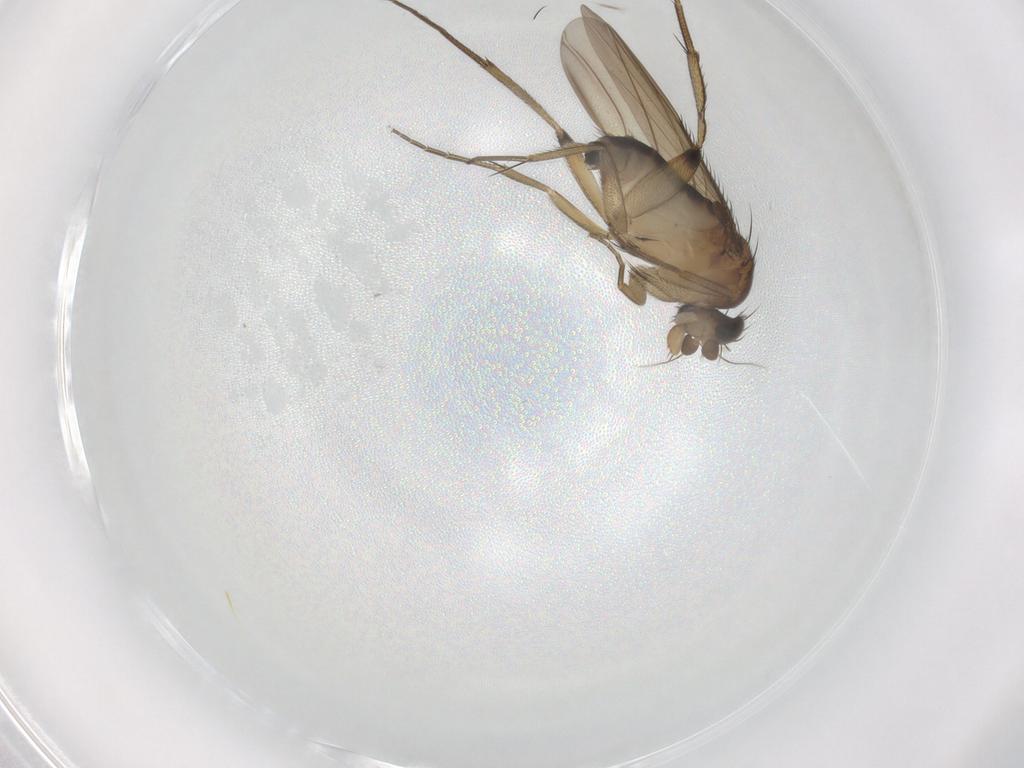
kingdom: Animalia
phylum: Arthropoda
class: Insecta
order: Diptera
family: Phoridae
